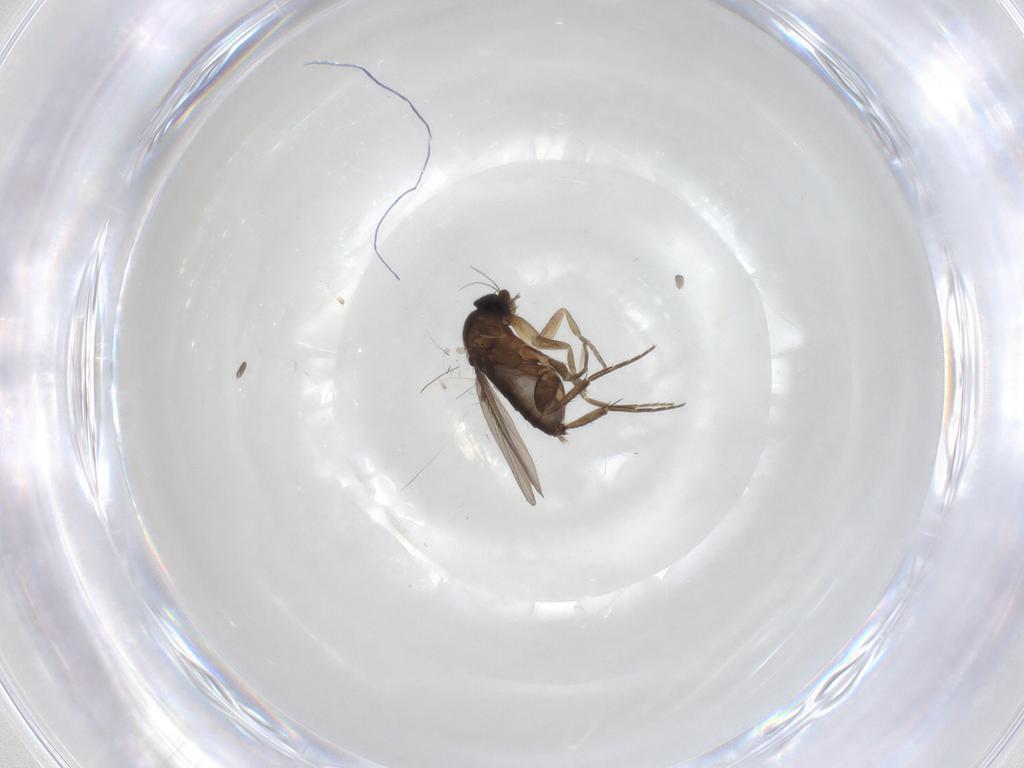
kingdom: Animalia
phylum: Arthropoda
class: Insecta
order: Diptera
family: Chironomidae
